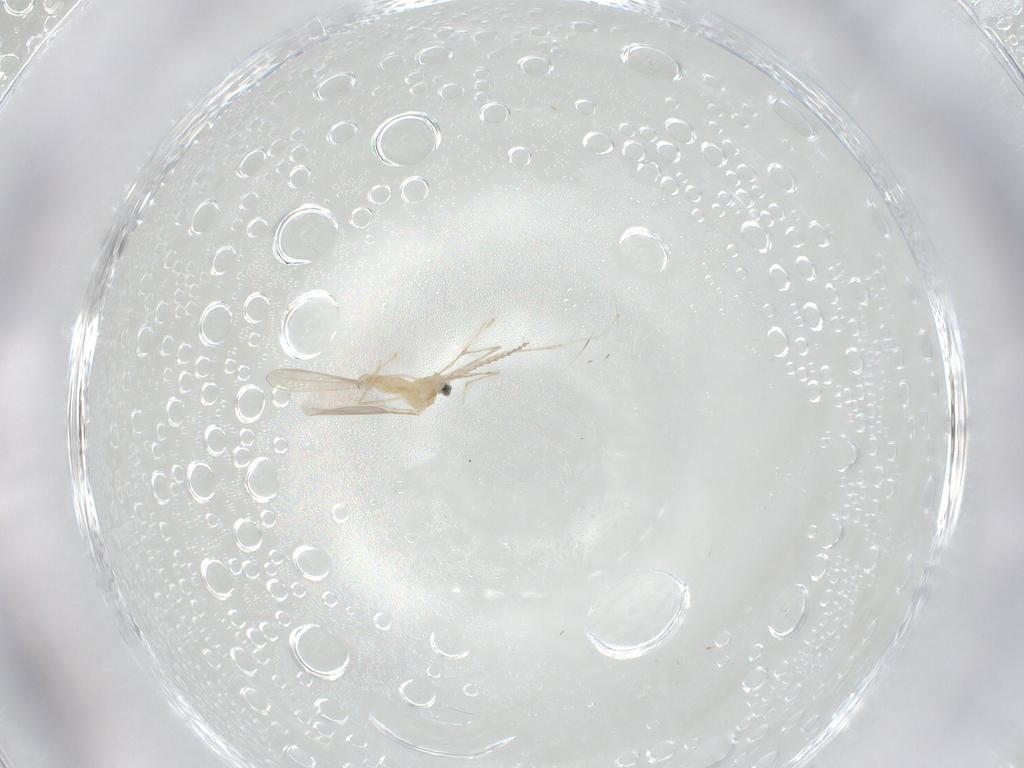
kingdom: Animalia
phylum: Arthropoda
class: Insecta
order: Diptera
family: Cecidomyiidae
